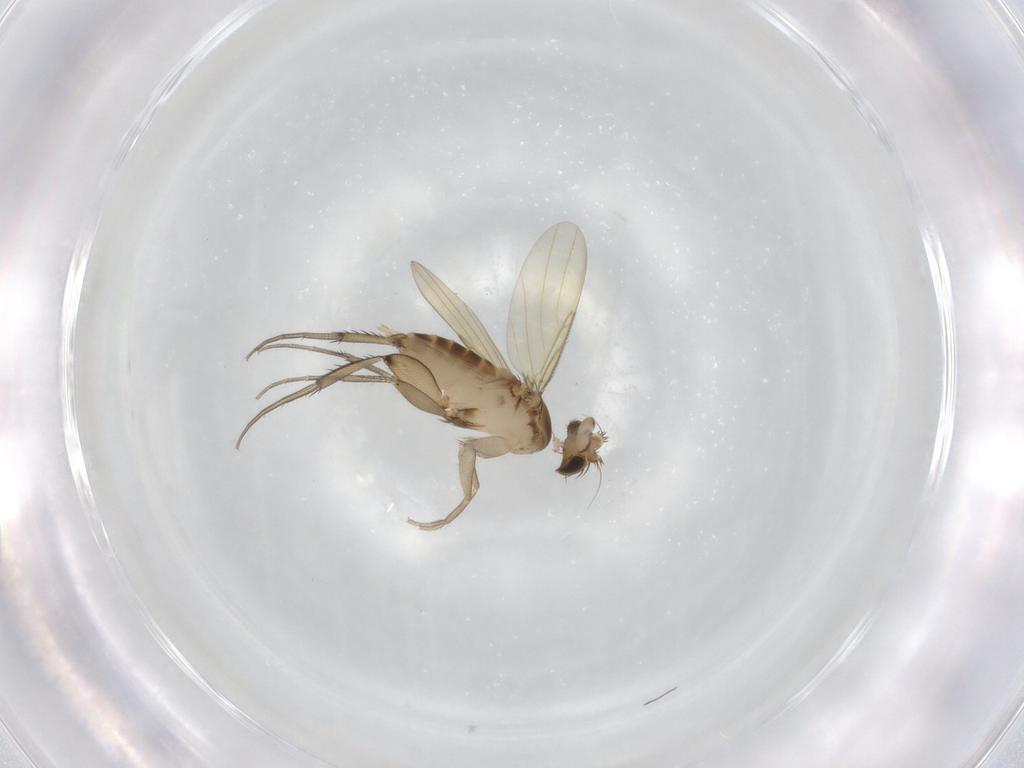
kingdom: Animalia
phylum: Arthropoda
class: Insecta
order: Diptera
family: Phoridae
